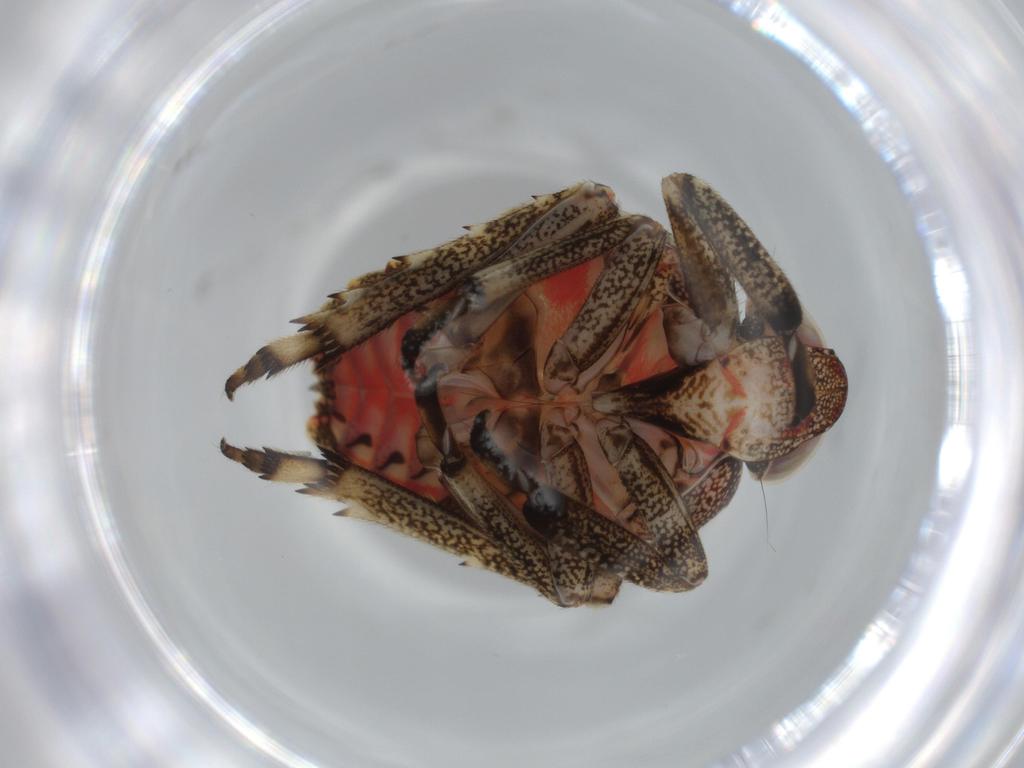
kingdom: Animalia
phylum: Arthropoda
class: Insecta
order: Hemiptera
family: Issidae
